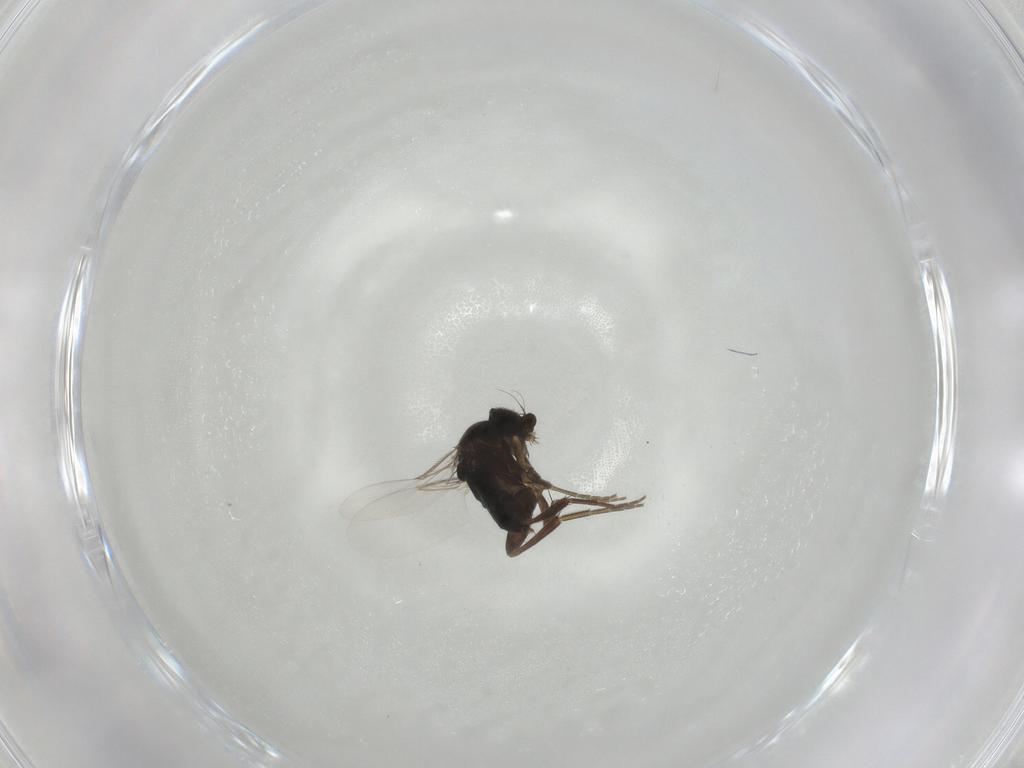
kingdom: Animalia
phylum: Arthropoda
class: Insecta
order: Diptera
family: Phoridae
